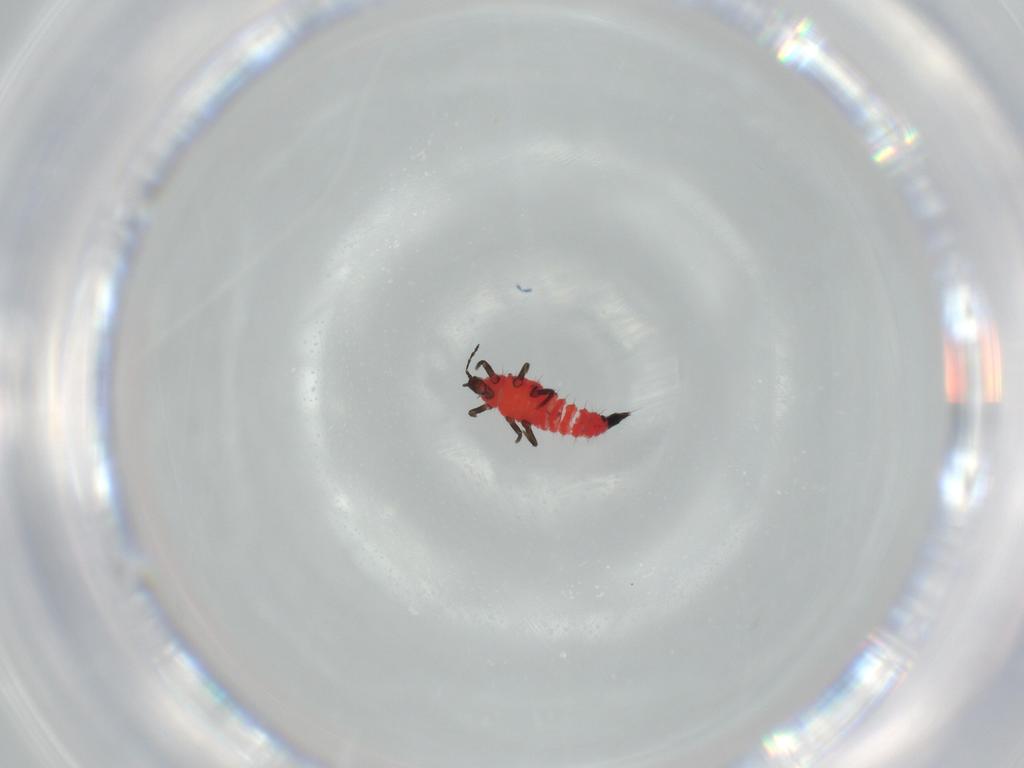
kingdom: Animalia
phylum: Arthropoda
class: Insecta
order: Thysanoptera
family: Phlaeothripidae
